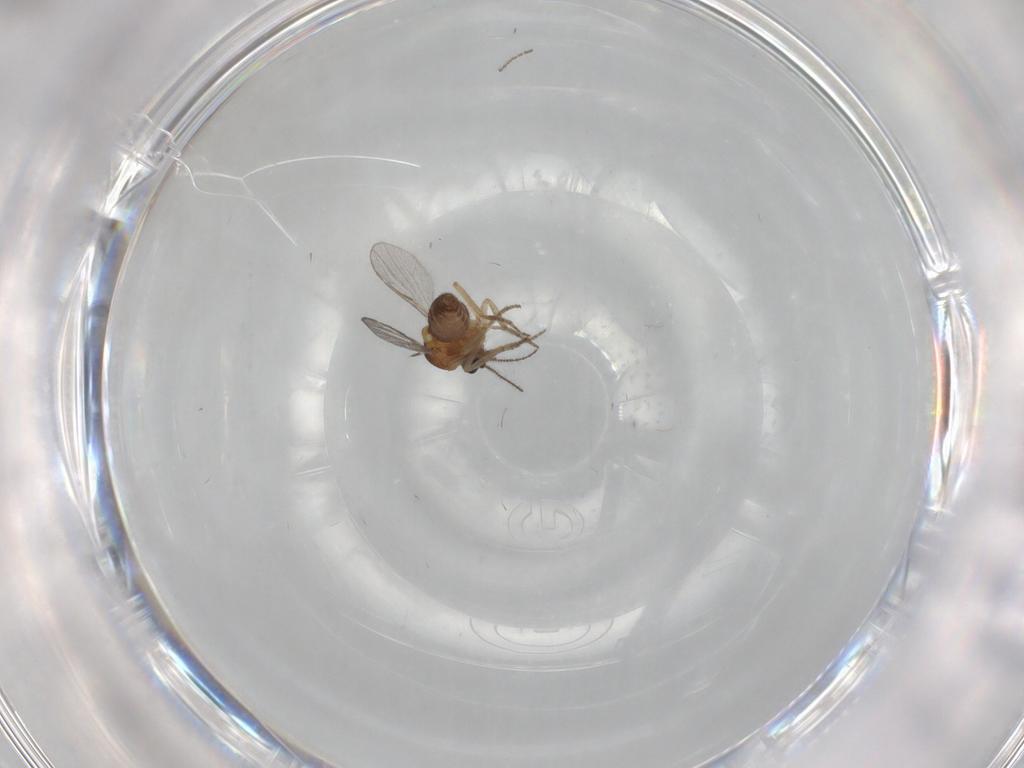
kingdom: Animalia
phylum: Arthropoda
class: Insecta
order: Diptera
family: Ceratopogonidae
